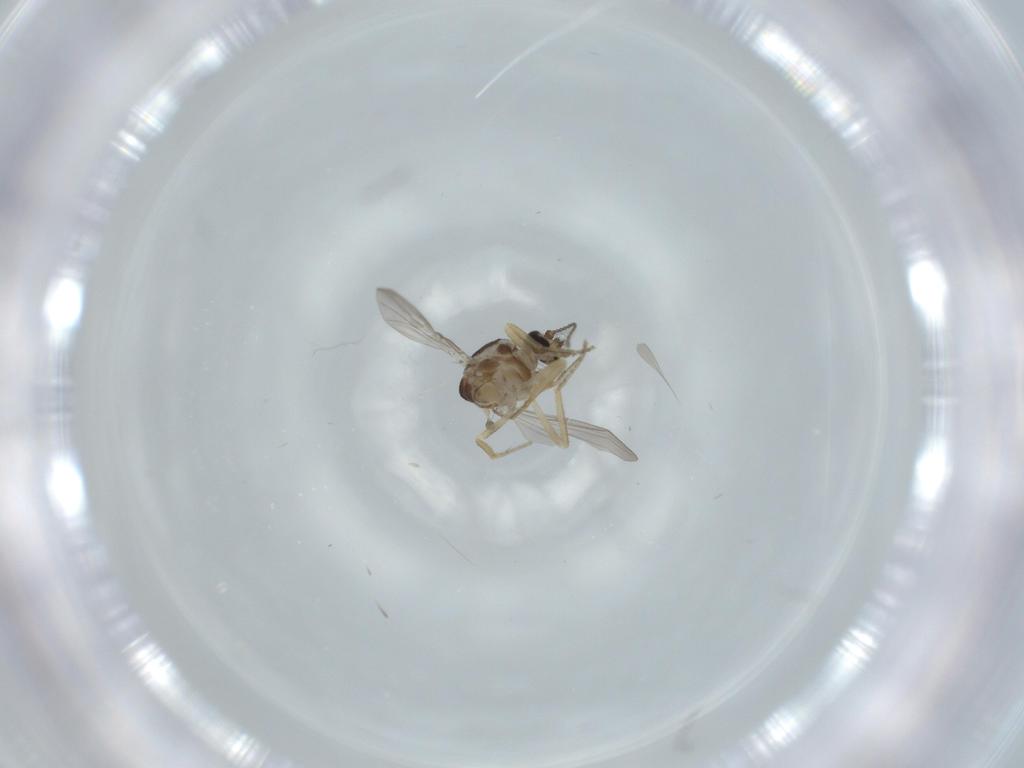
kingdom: Animalia
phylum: Arthropoda
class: Insecta
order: Diptera
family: Ceratopogonidae
